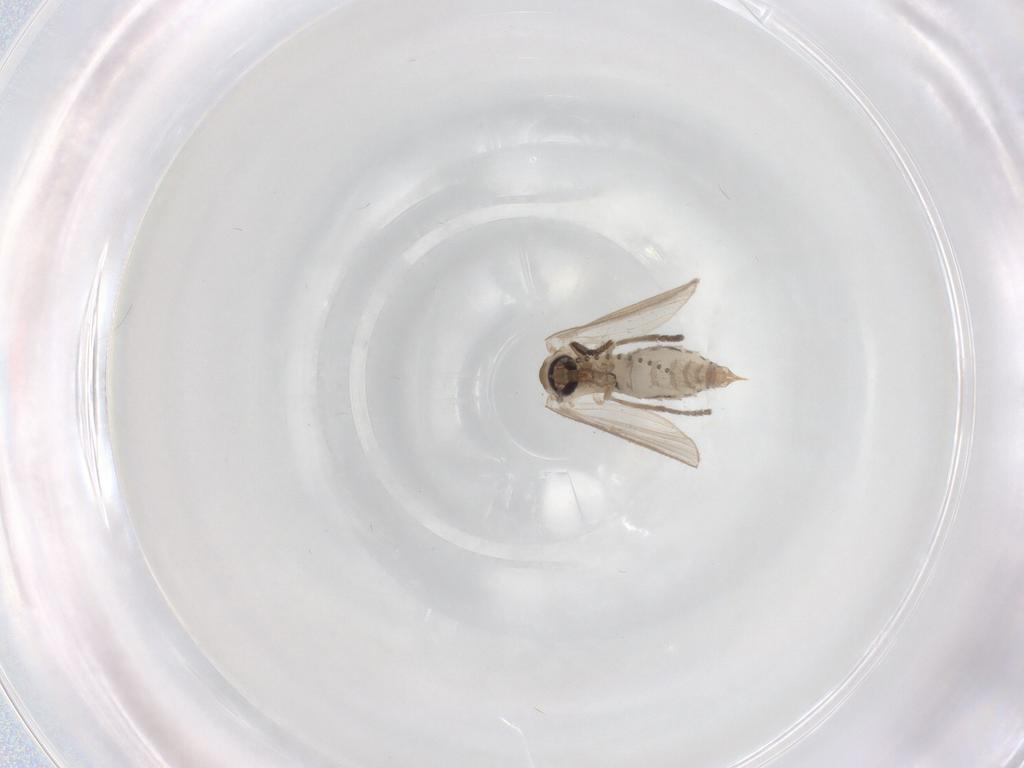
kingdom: Animalia
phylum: Arthropoda
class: Insecta
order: Diptera
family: Psychodidae
